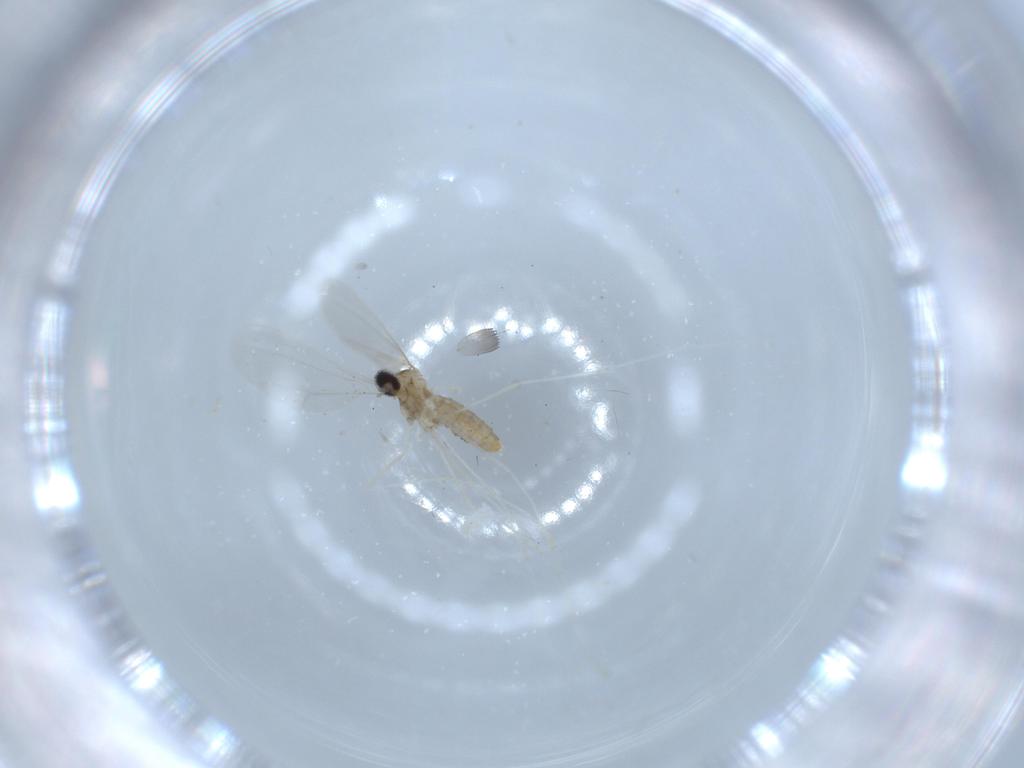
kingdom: Animalia
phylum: Arthropoda
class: Insecta
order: Diptera
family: Cecidomyiidae
